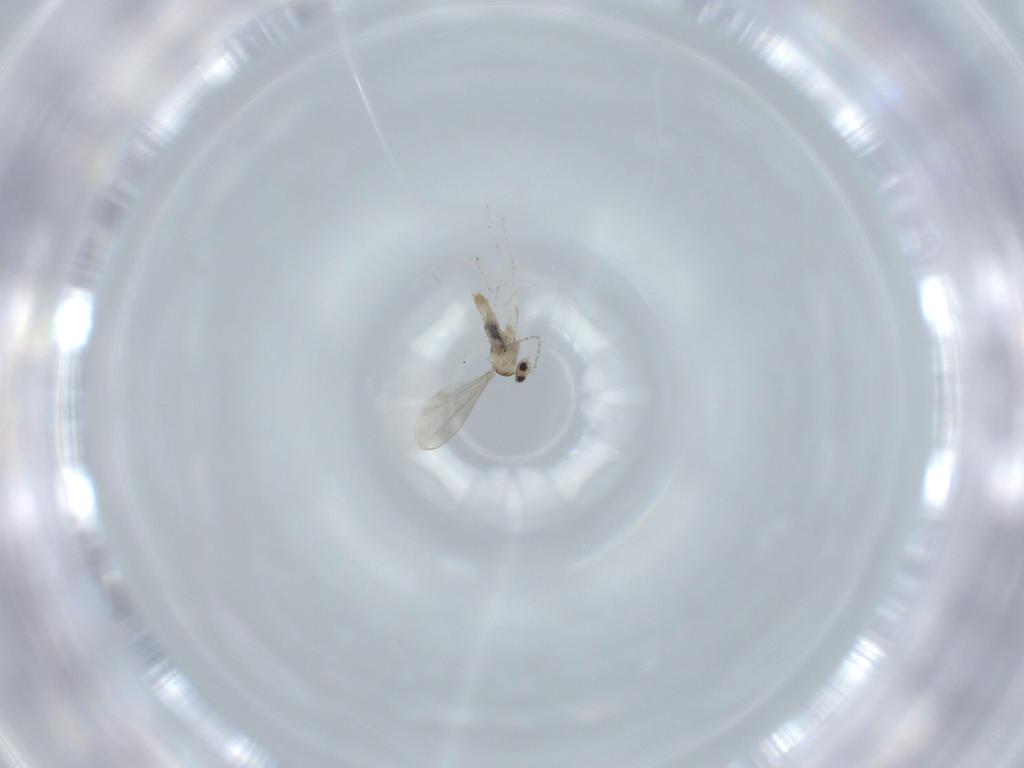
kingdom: Animalia
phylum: Arthropoda
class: Insecta
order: Diptera
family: Cecidomyiidae
